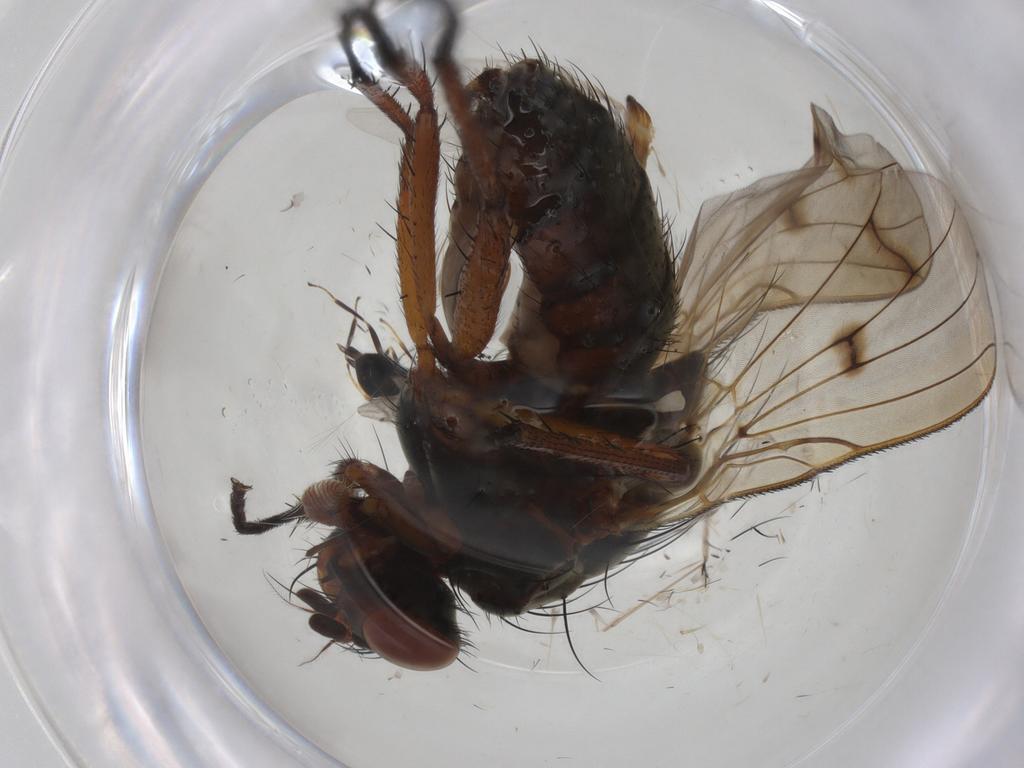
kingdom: Animalia
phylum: Arthropoda
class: Insecta
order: Diptera
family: Anthomyiidae
